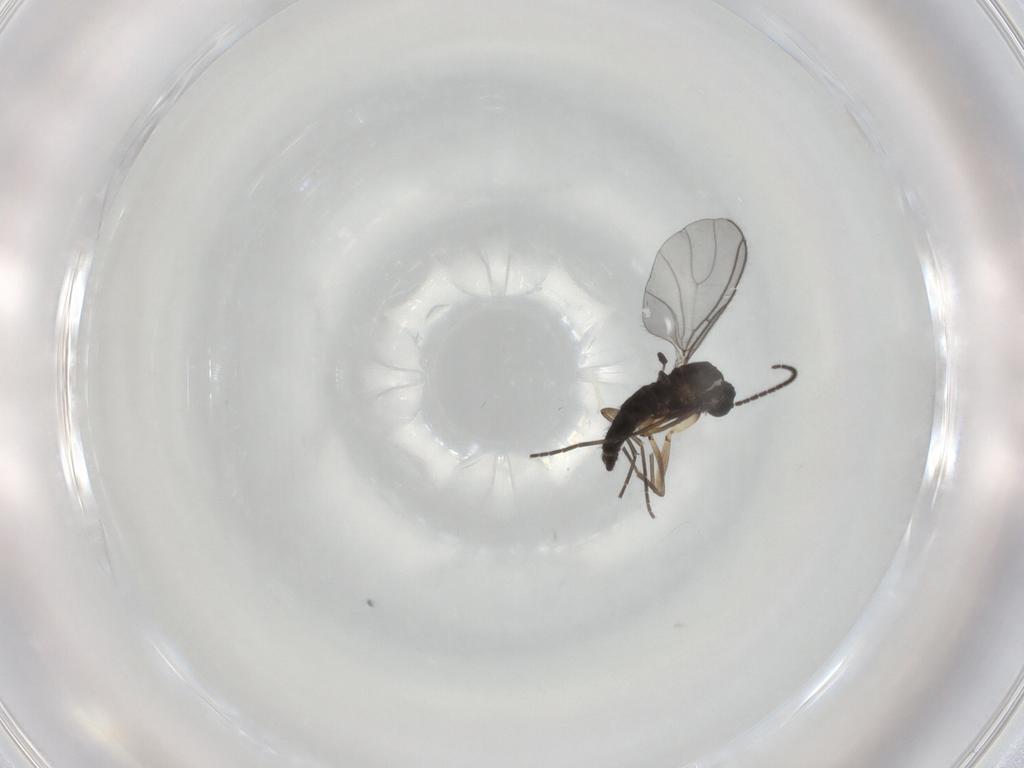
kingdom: Animalia
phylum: Arthropoda
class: Insecta
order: Diptera
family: Sciaridae
